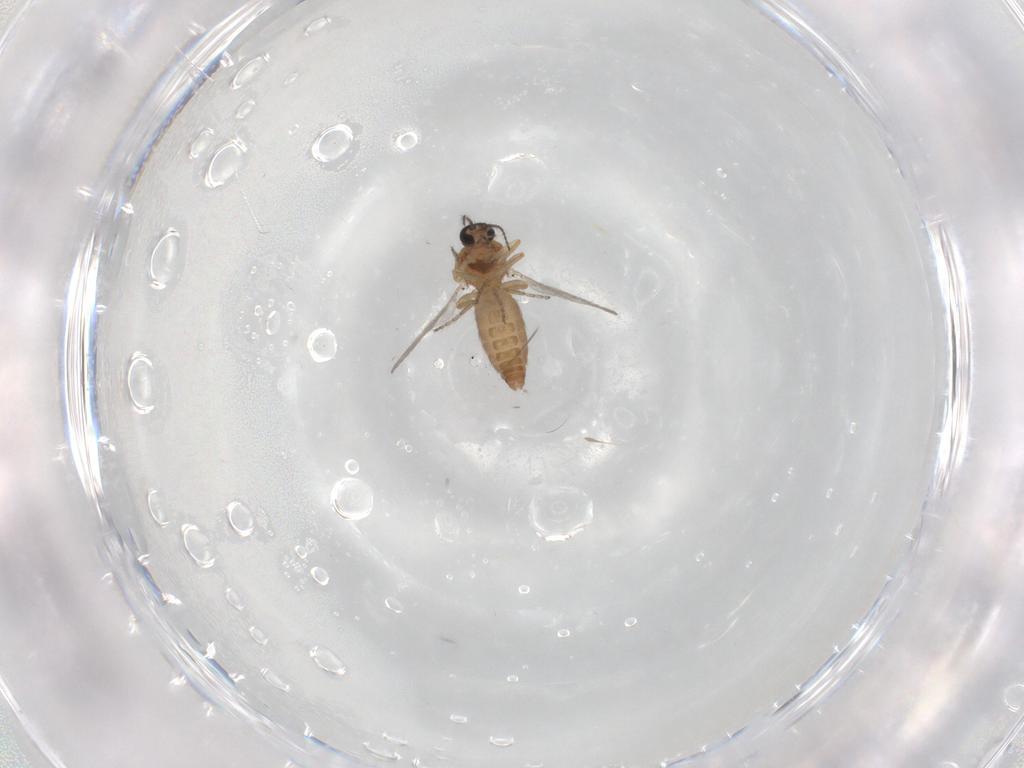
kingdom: Animalia
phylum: Arthropoda
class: Insecta
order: Diptera
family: Ceratopogonidae
